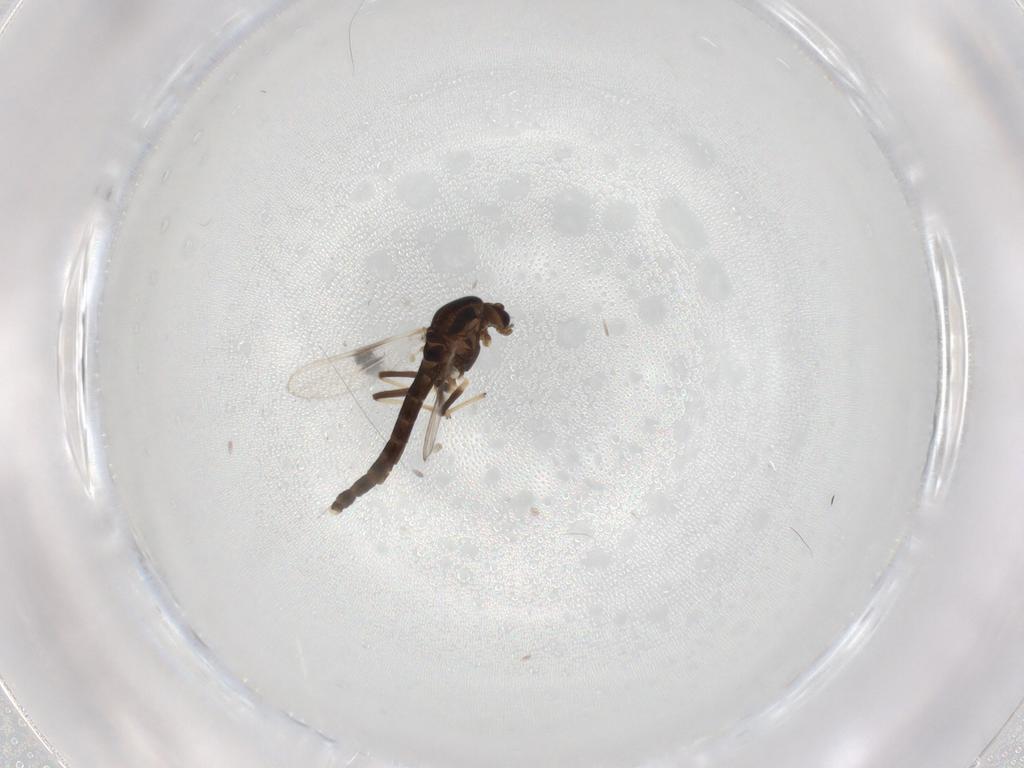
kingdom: Animalia
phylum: Arthropoda
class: Insecta
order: Diptera
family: Chironomidae
